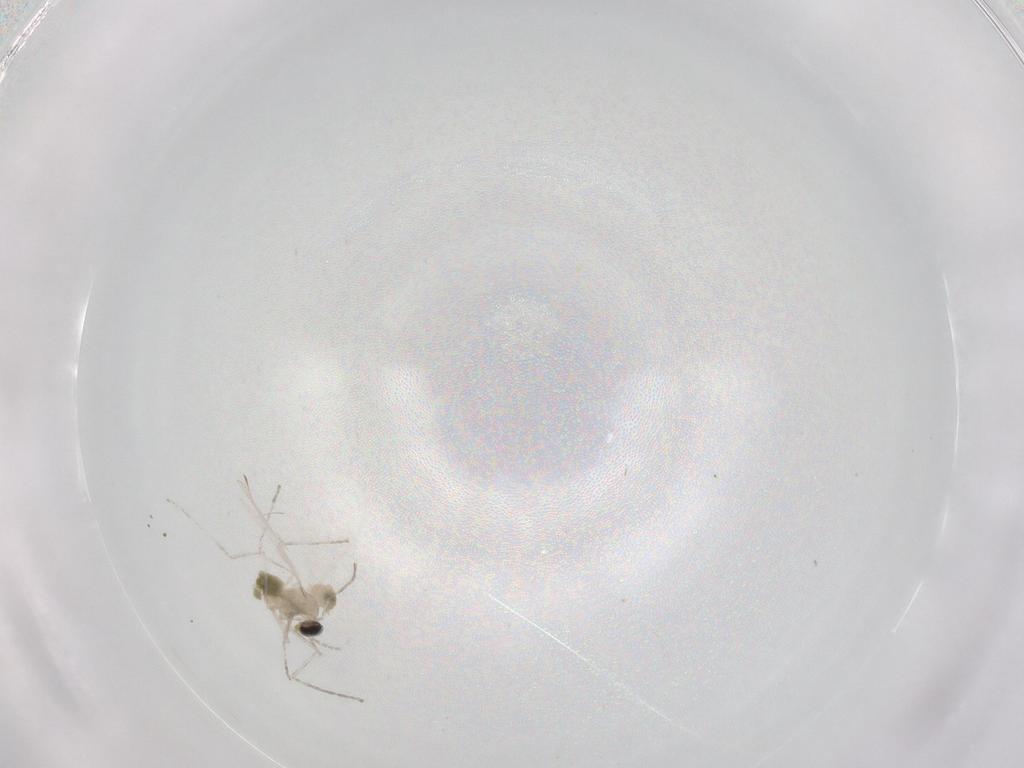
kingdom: Animalia
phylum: Arthropoda
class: Insecta
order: Diptera
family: Cecidomyiidae
